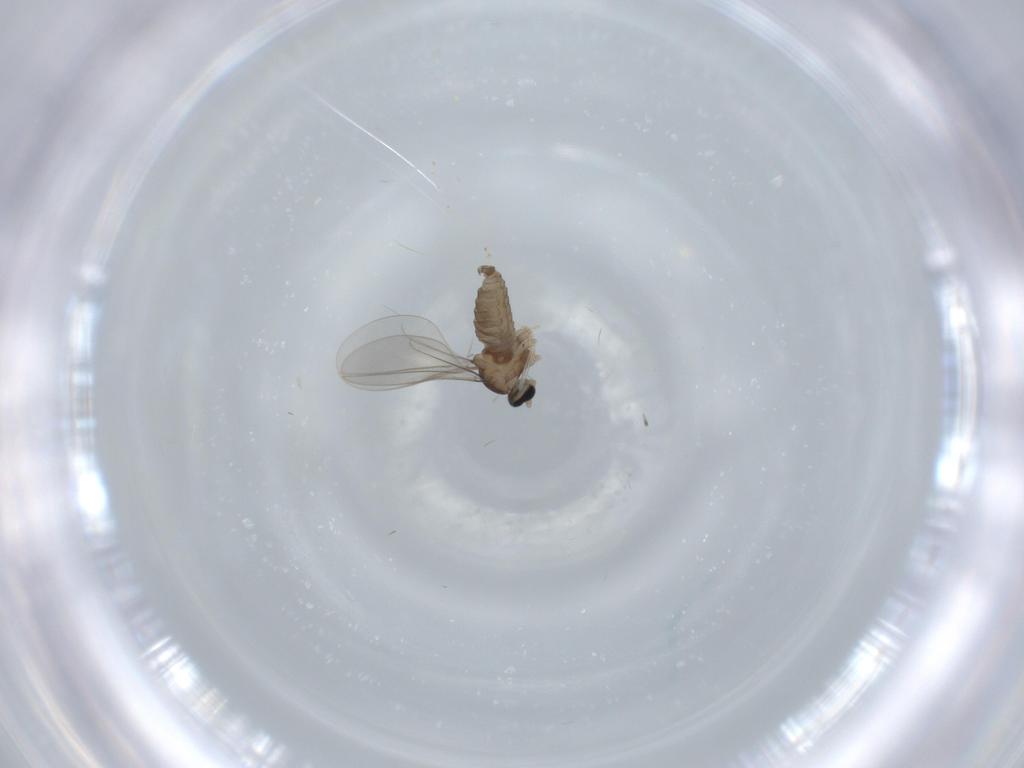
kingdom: Animalia
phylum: Arthropoda
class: Insecta
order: Diptera
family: Cecidomyiidae
